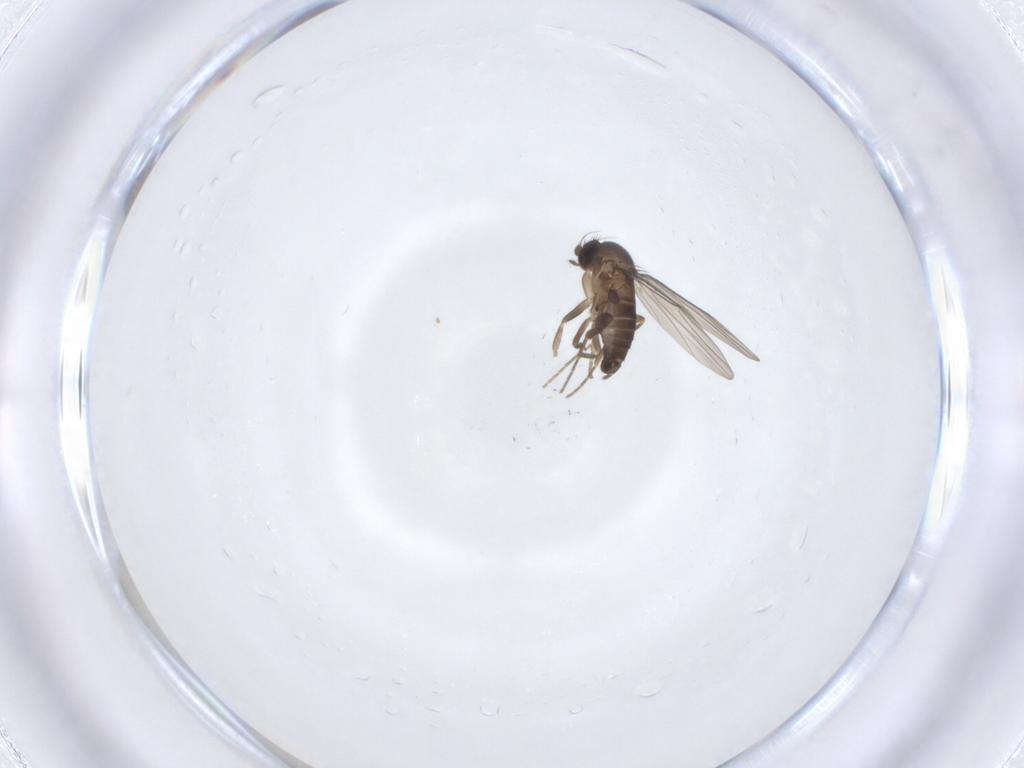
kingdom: Animalia
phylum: Arthropoda
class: Insecta
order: Diptera
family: Phoridae
